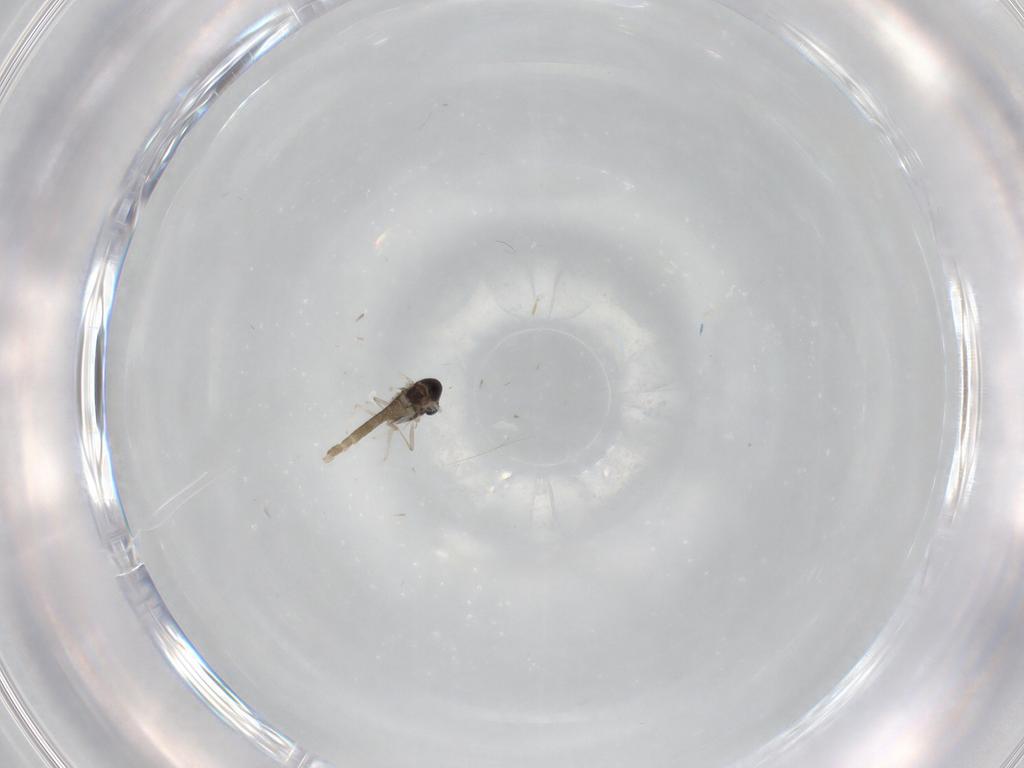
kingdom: Animalia
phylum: Arthropoda
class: Insecta
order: Diptera
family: Chironomidae
